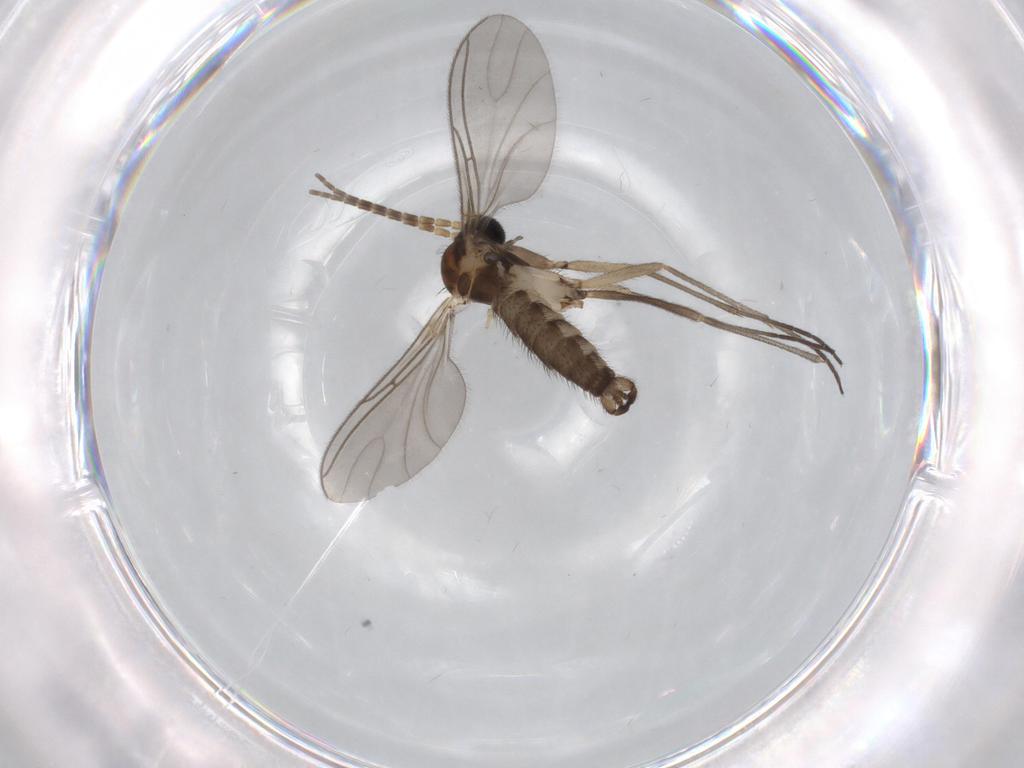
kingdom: Animalia
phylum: Arthropoda
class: Insecta
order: Diptera
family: Sciaridae
